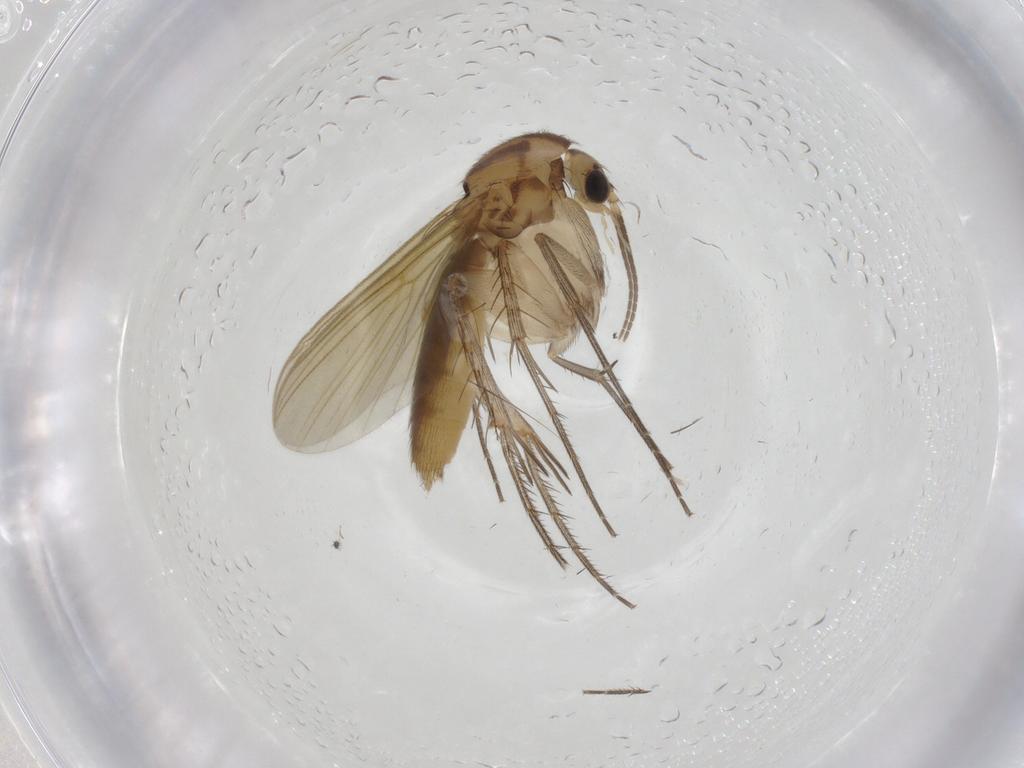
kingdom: Animalia
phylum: Arthropoda
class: Insecta
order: Diptera
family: Mycetophilidae
